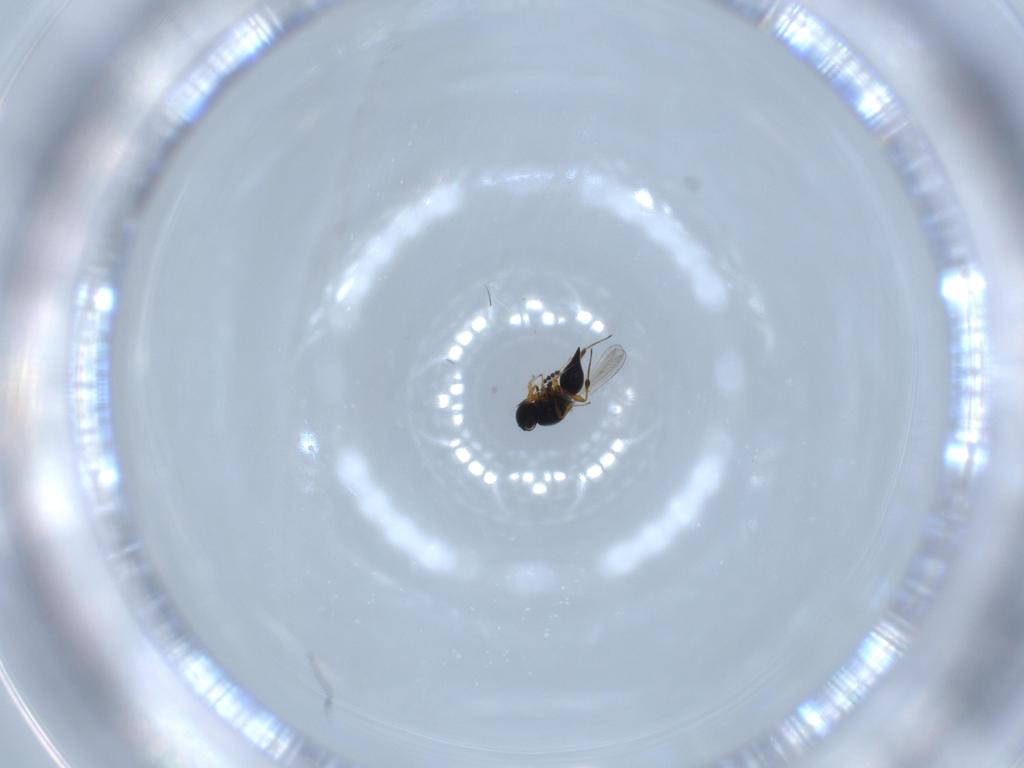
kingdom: Animalia
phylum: Arthropoda
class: Insecta
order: Hymenoptera
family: Platygastridae
